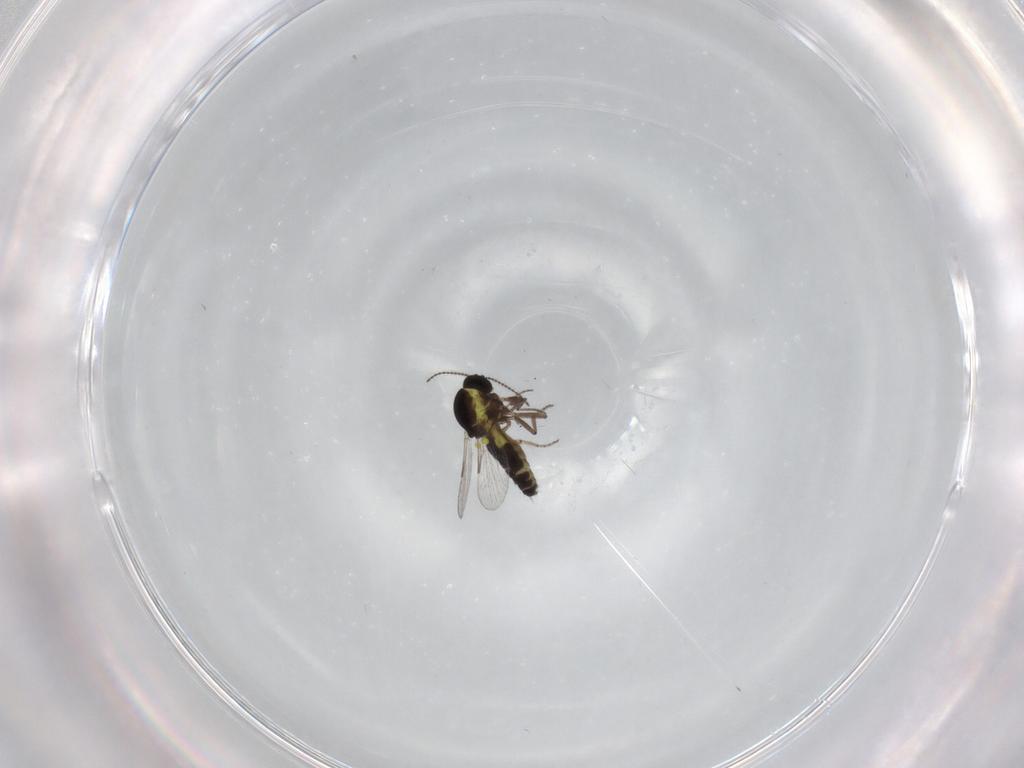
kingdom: Animalia
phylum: Arthropoda
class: Insecta
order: Diptera
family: Ceratopogonidae
